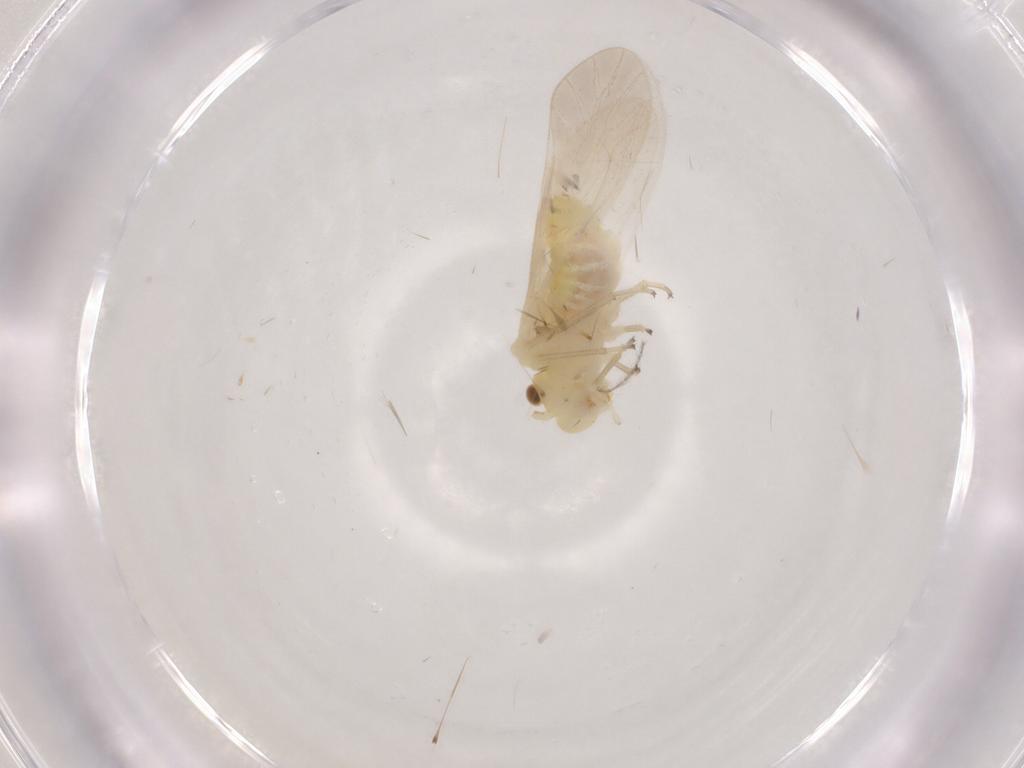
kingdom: Animalia
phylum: Arthropoda
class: Insecta
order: Psocodea
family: Caeciliusidae
